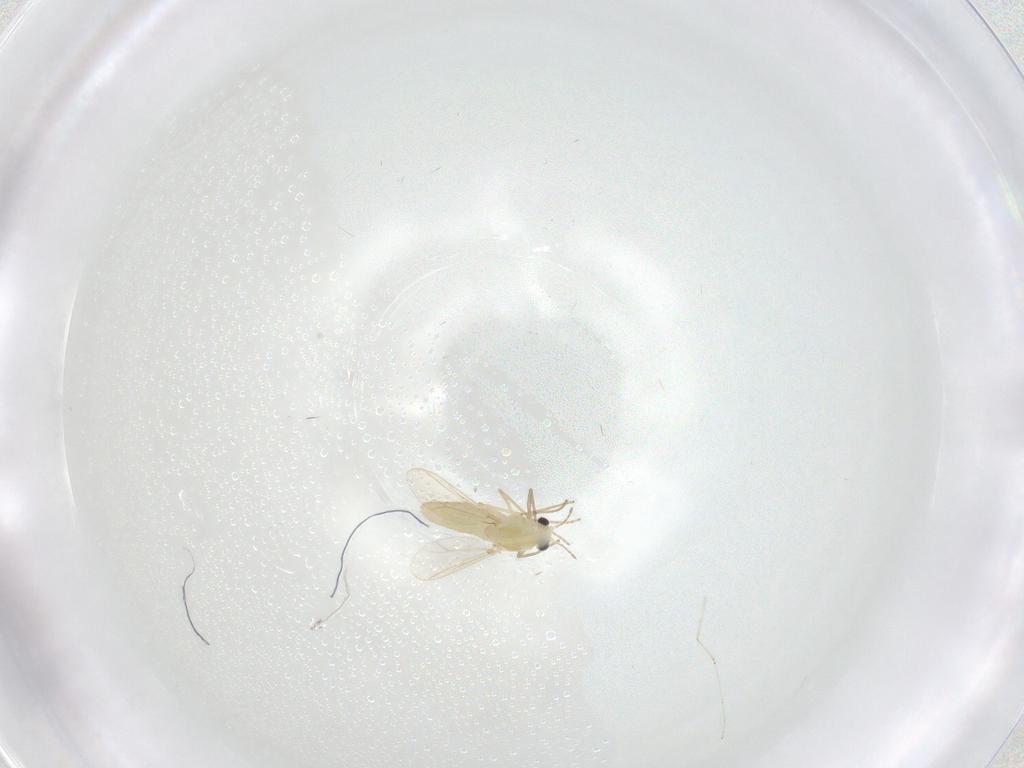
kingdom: Animalia
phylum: Arthropoda
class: Insecta
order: Diptera
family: Chironomidae
